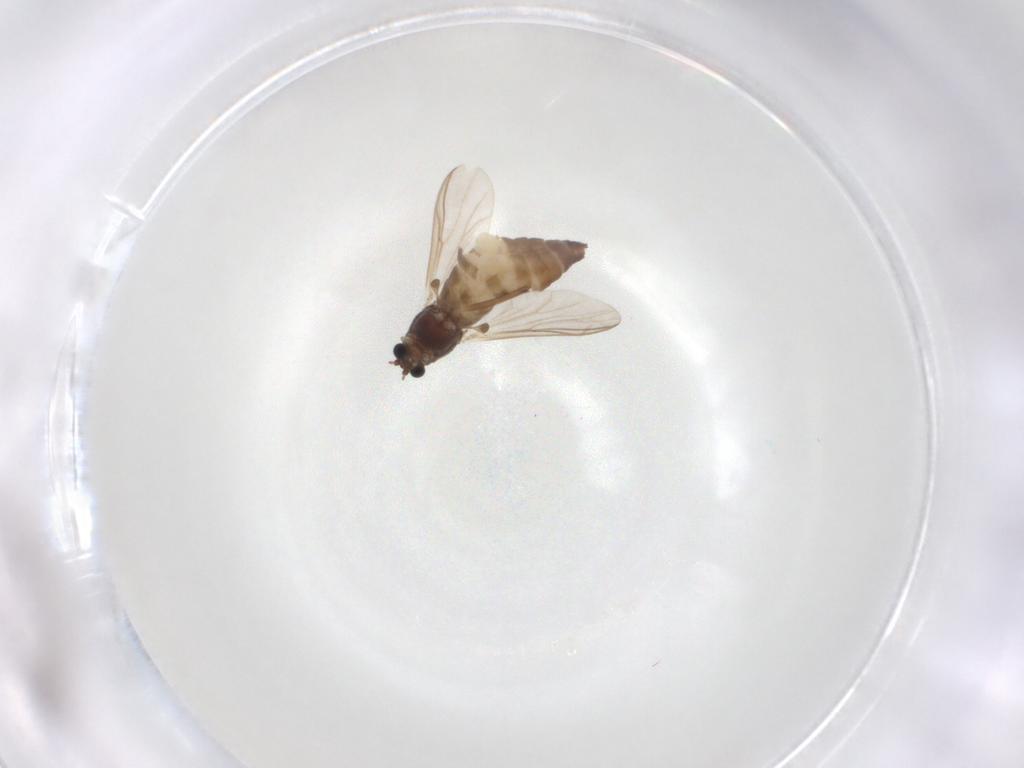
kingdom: Animalia
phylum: Arthropoda
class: Insecta
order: Diptera
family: Chironomidae
